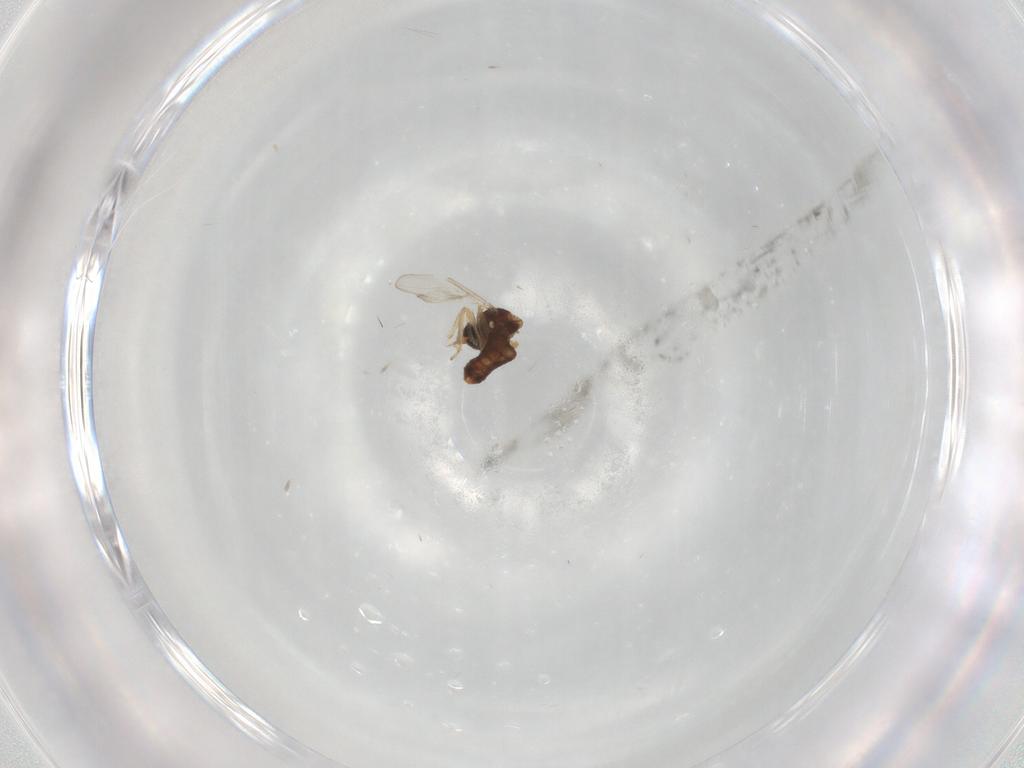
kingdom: Animalia
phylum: Arthropoda
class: Insecta
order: Diptera
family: Ceratopogonidae
